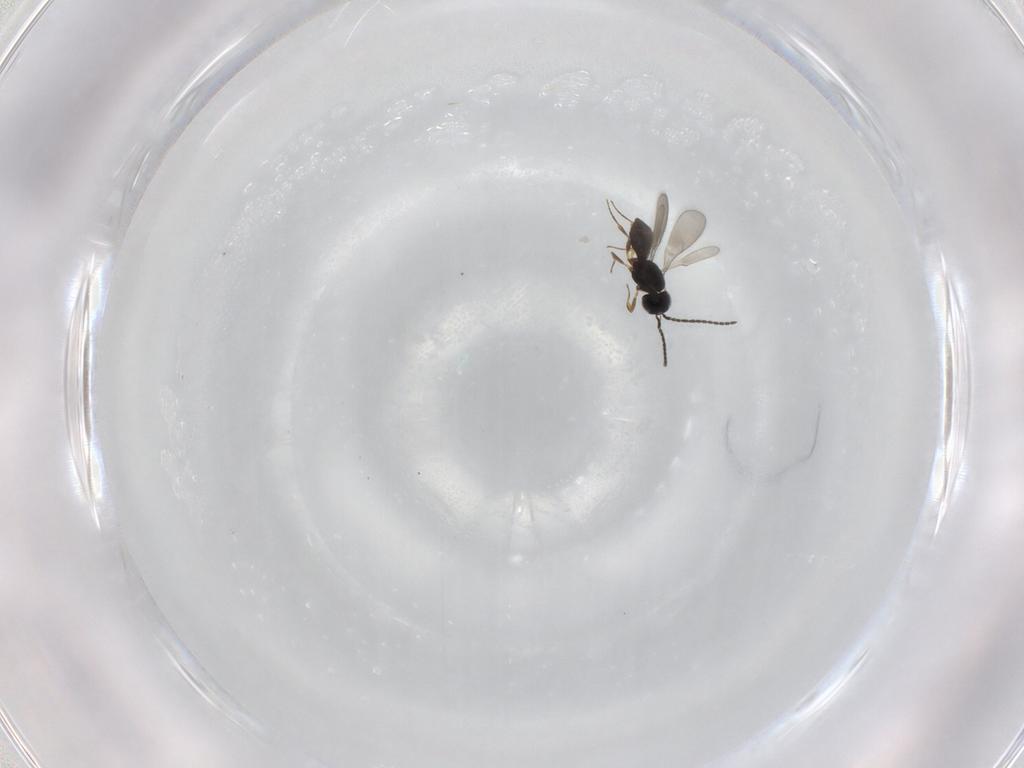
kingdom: Animalia
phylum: Arthropoda
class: Insecta
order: Hymenoptera
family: Scelionidae
